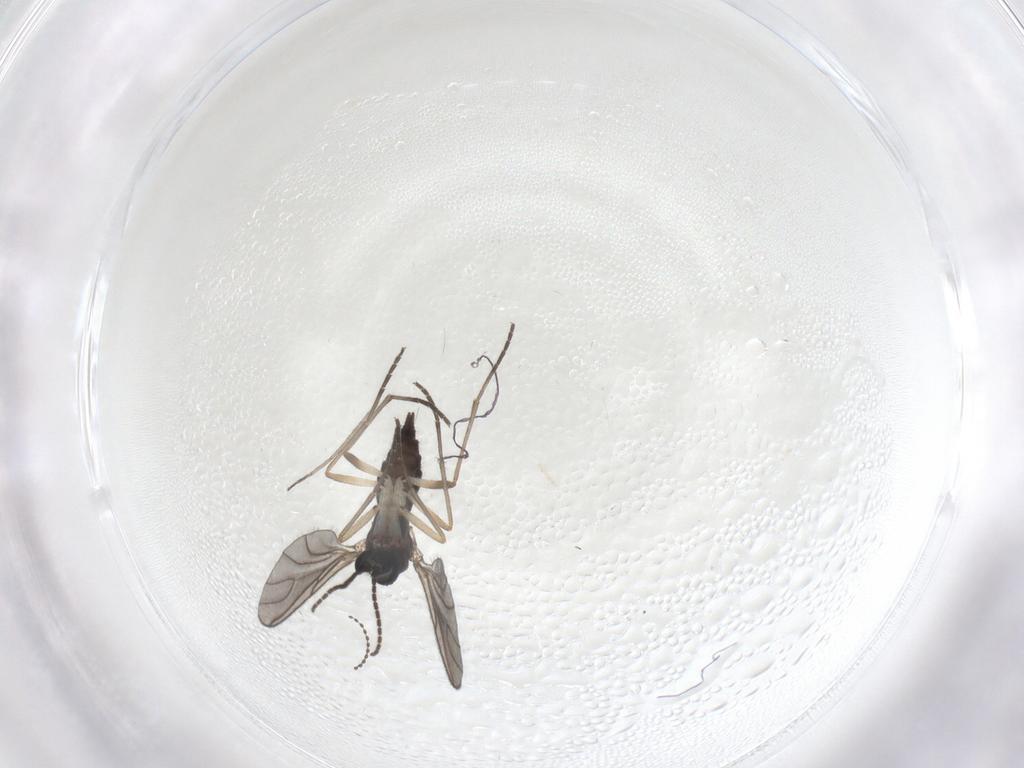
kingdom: Animalia
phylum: Arthropoda
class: Insecta
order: Diptera
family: Sciaridae
